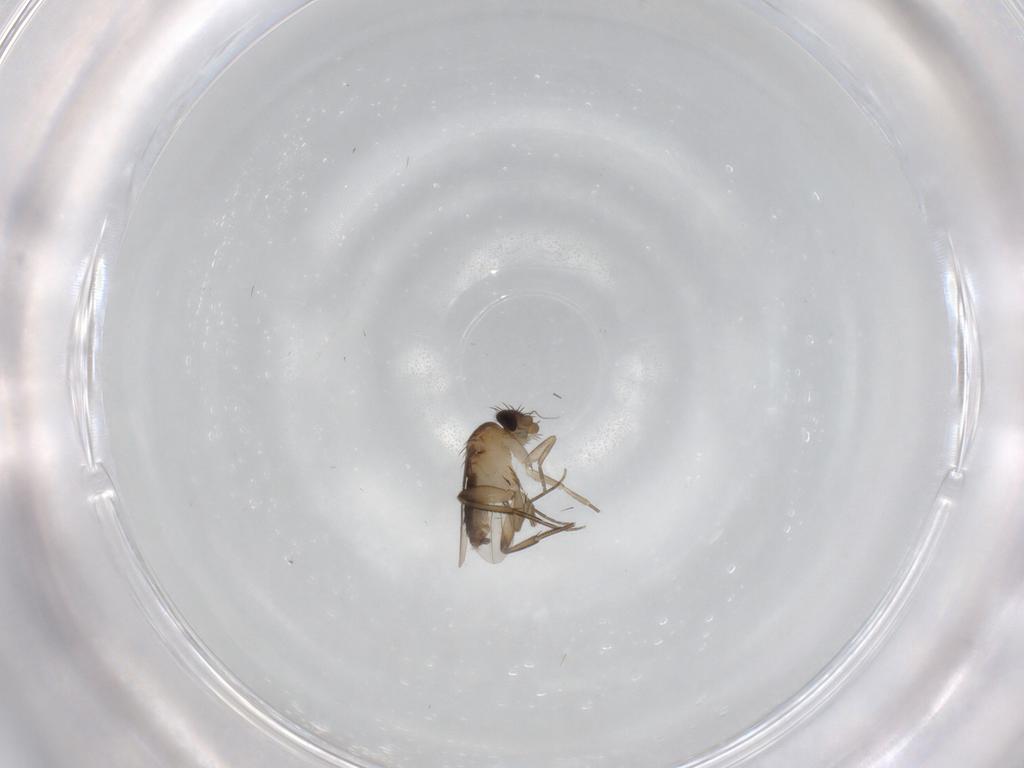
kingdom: Animalia
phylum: Arthropoda
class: Insecta
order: Diptera
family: Phoridae
